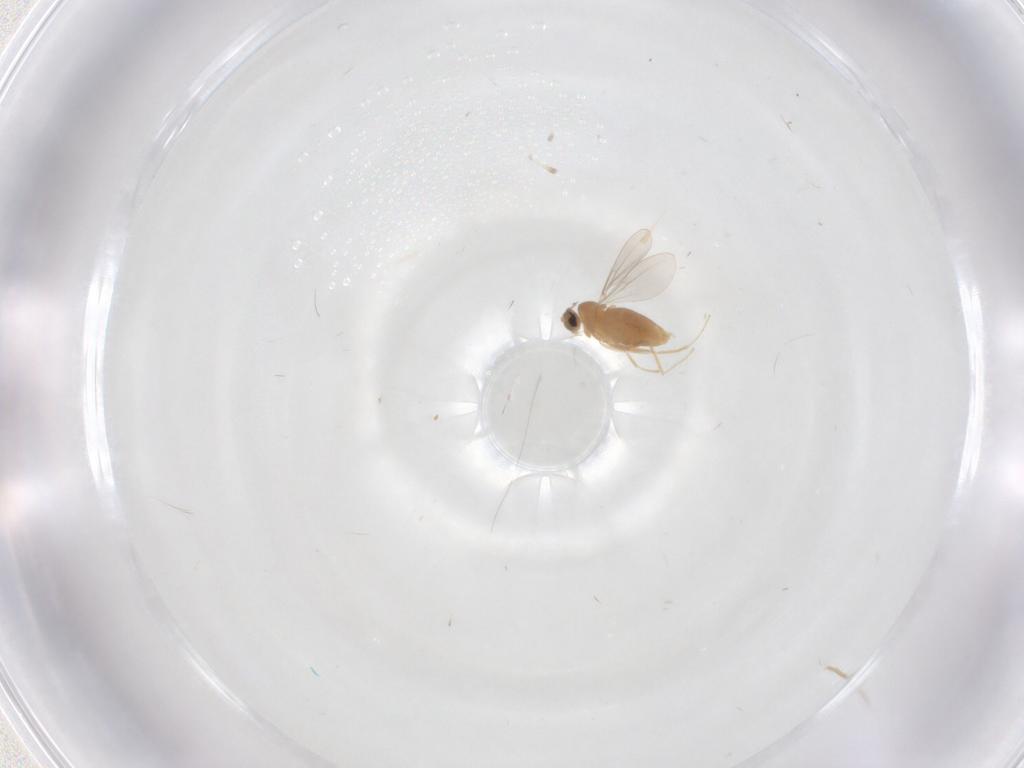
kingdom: Animalia
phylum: Arthropoda
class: Insecta
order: Diptera
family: Cecidomyiidae
